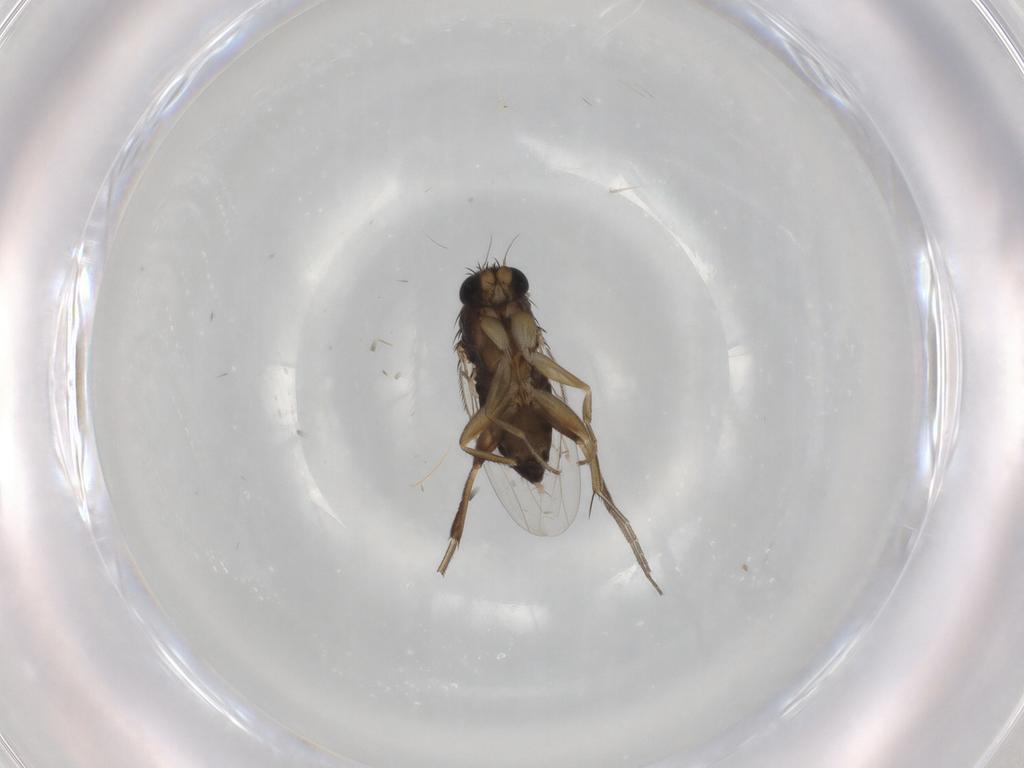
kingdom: Animalia
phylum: Arthropoda
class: Insecta
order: Diptera
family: Phoridae
